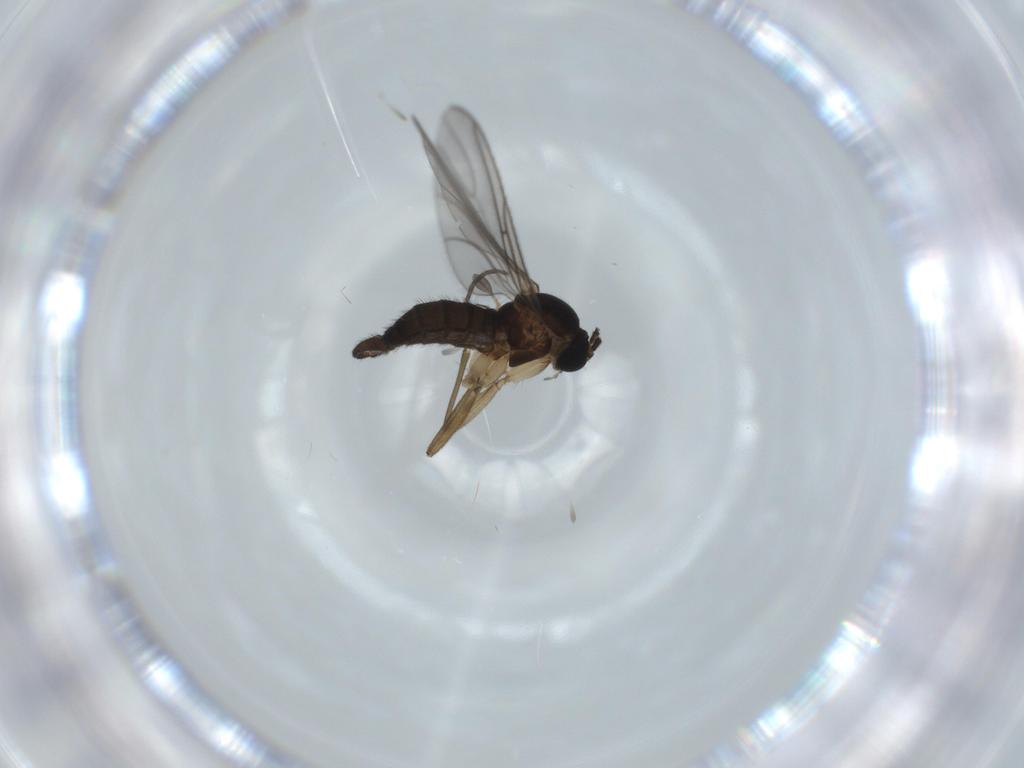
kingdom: Animalia
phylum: Arthropoda
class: Insecta
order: Diptera
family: Sciaridae
